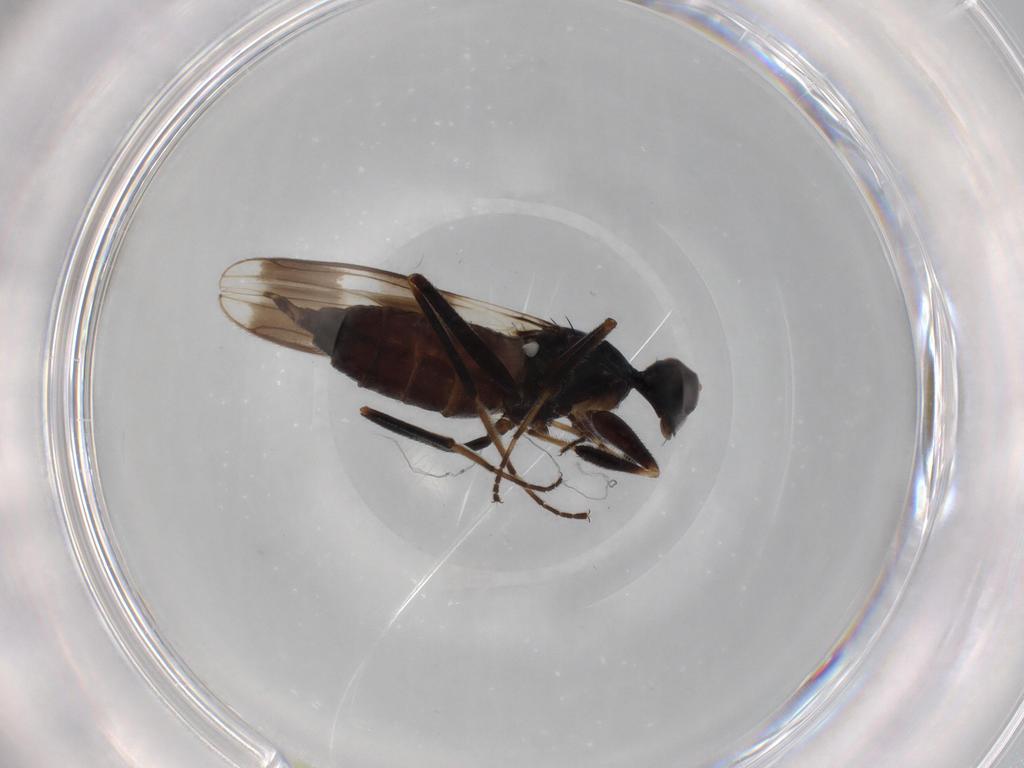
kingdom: Animalia
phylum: Arthropoda
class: Insecta
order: Diptera
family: Hybotidae
